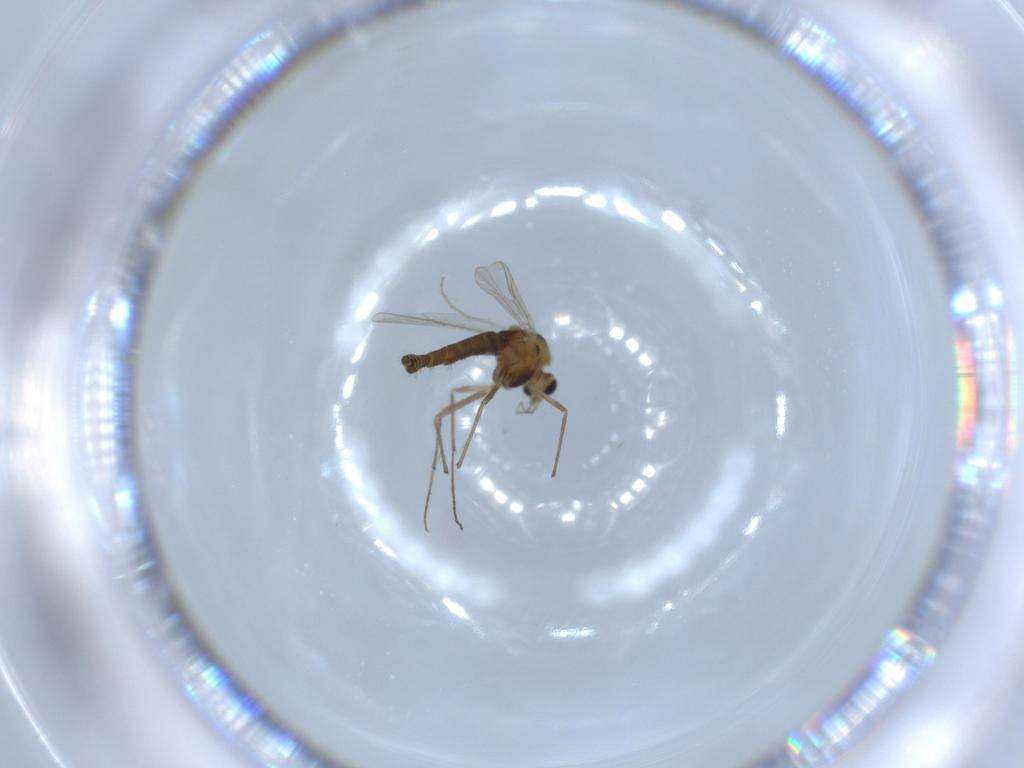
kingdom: Animalia
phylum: Arthropoda
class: Insecta
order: Diptera
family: Chironomidae
